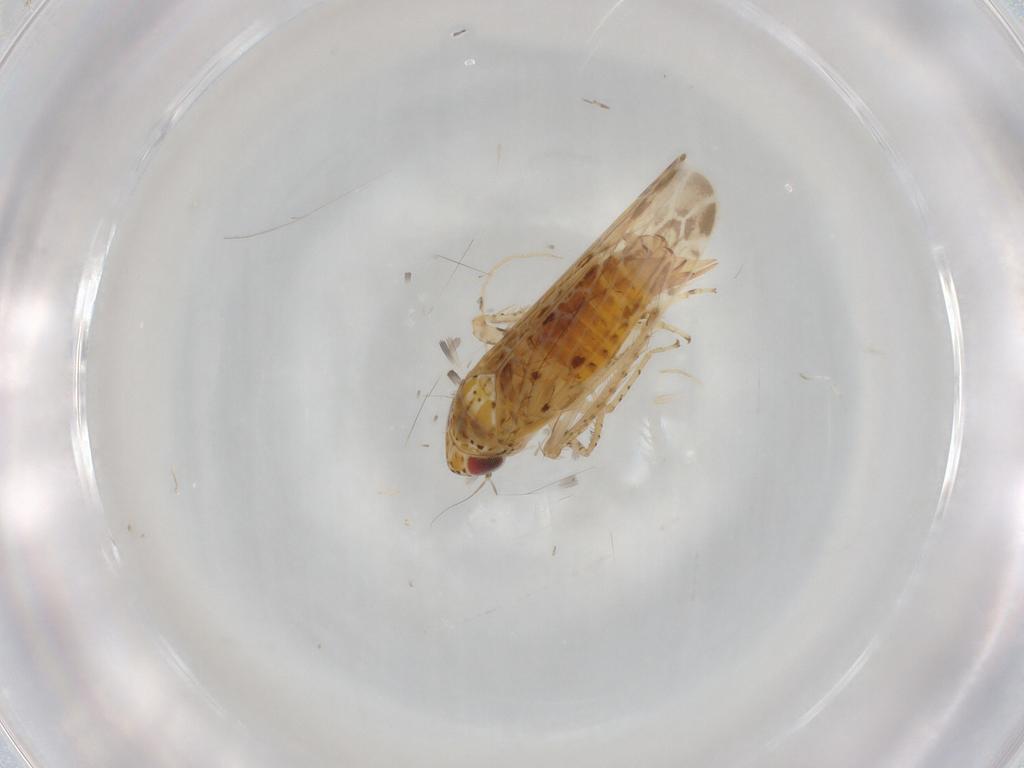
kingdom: Animalia
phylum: Arthropoda
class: Insecta
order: Hemiptera
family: Cicadellidae
